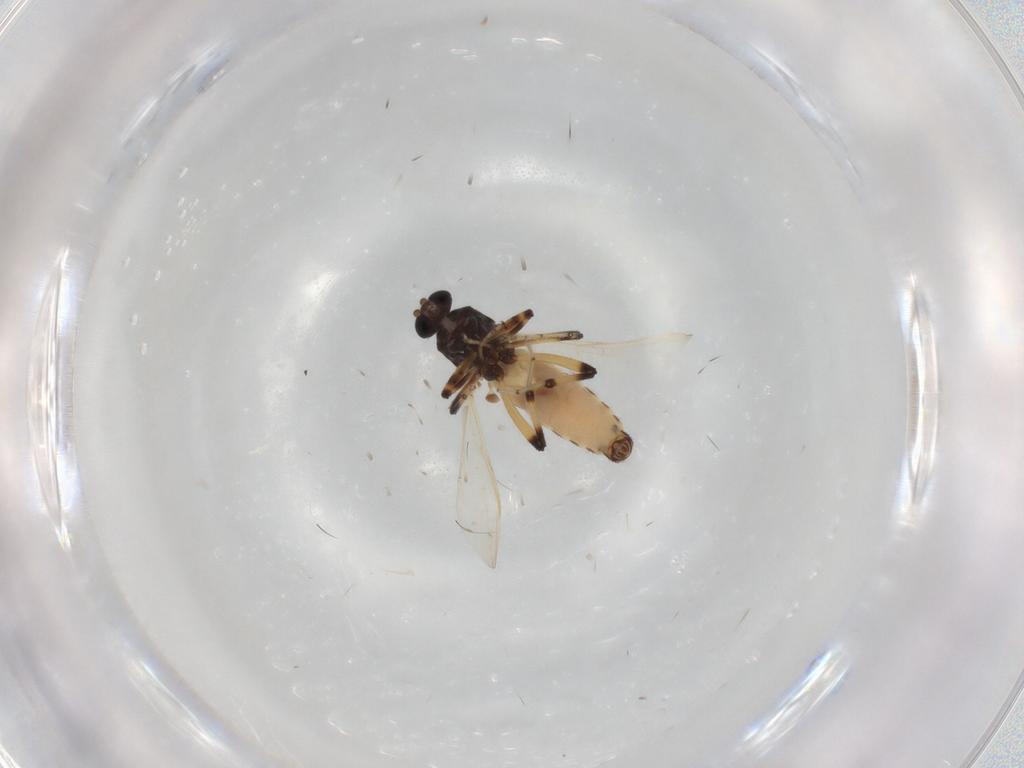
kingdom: Animalia
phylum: Arthropoda
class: Insecta
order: Diptera
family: Ceratopogonidae
